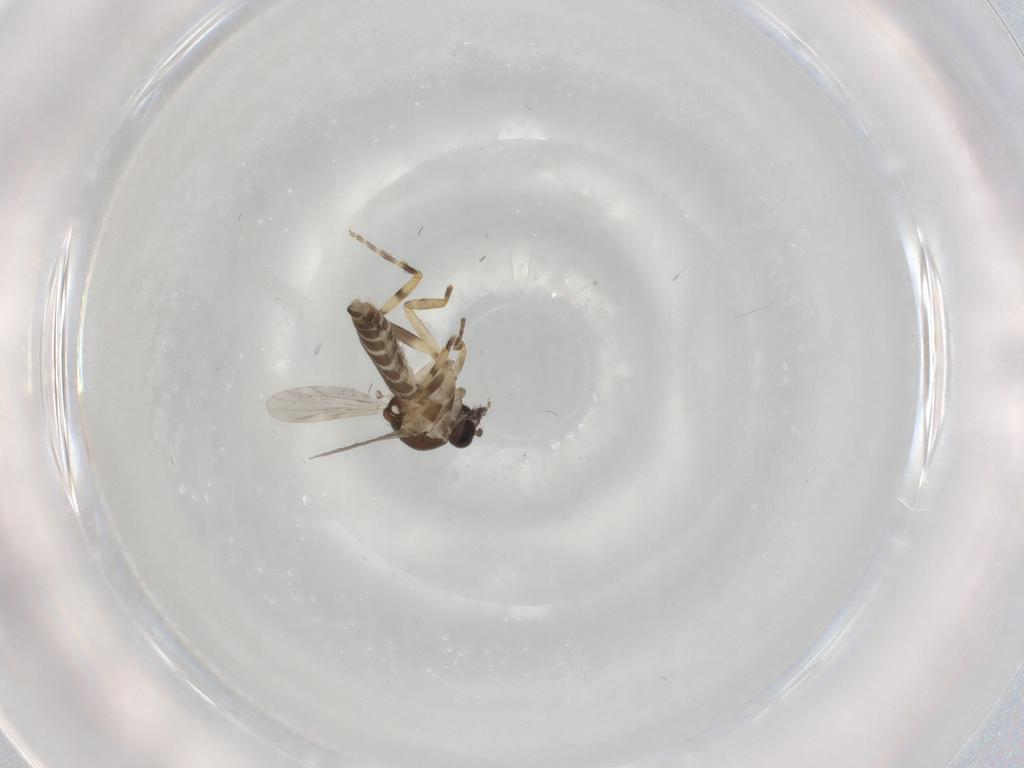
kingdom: Animalia
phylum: Arthropoda
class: Insecta
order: Diptera
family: Ceratopogonidae
